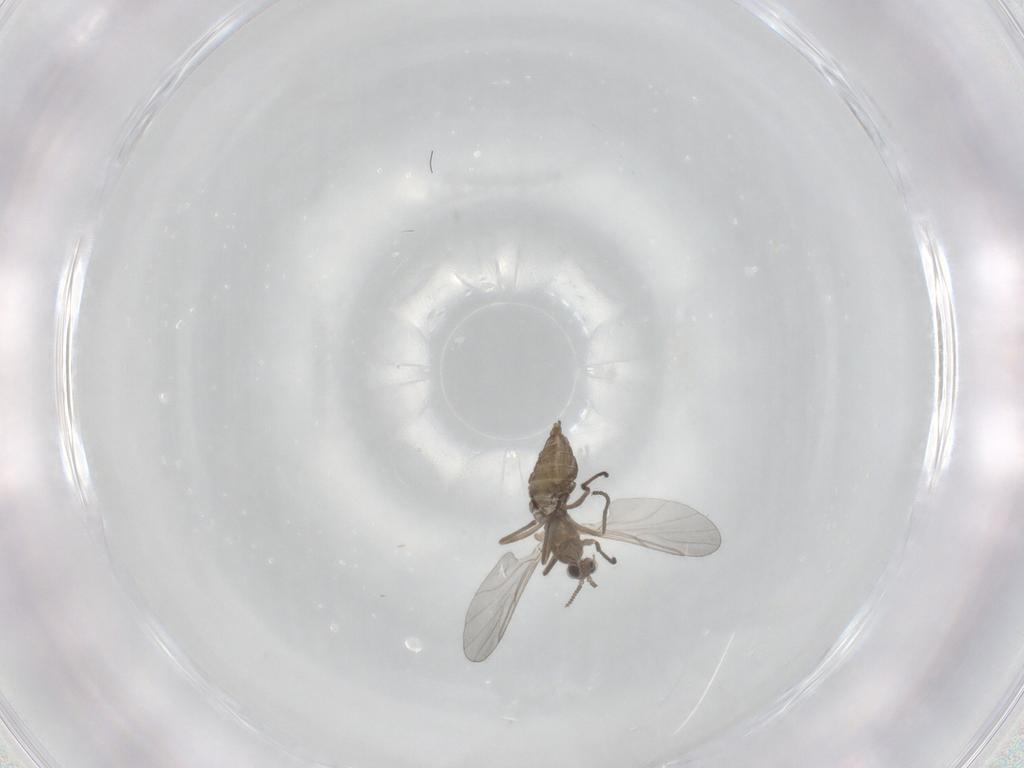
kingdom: Animalia
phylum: Arthropoda
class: Insecta
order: Diptera
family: Cecidomyiidae
